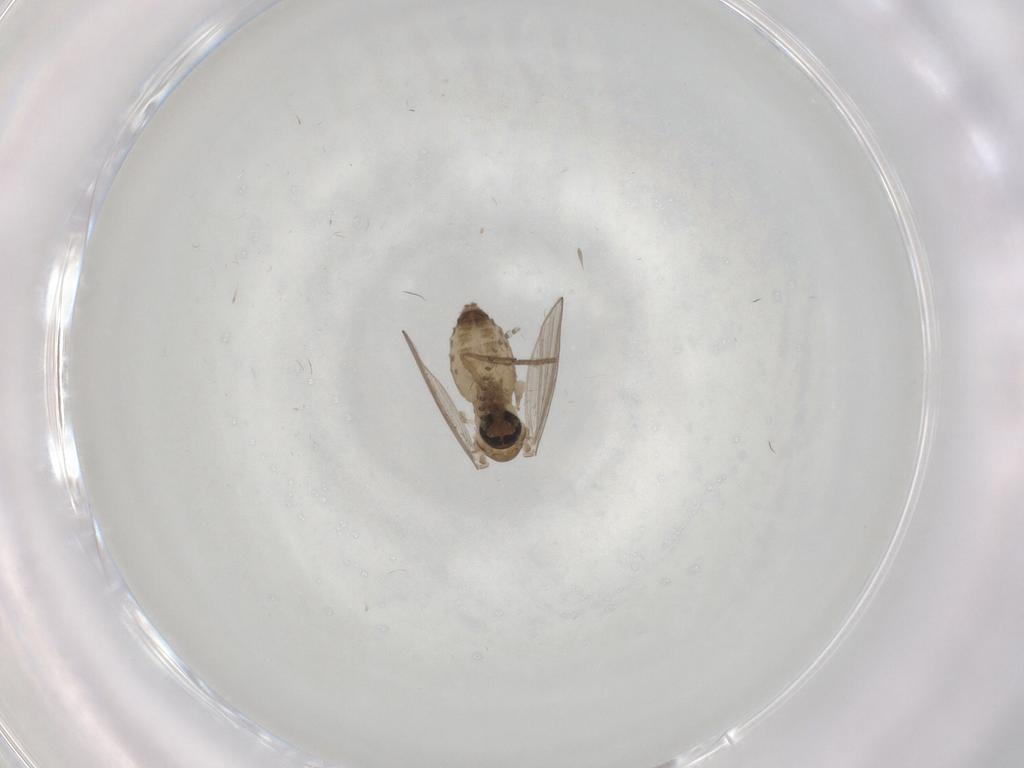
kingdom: Animalia
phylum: Arthropoda
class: Insecta
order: Diptera
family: Psychodidae
